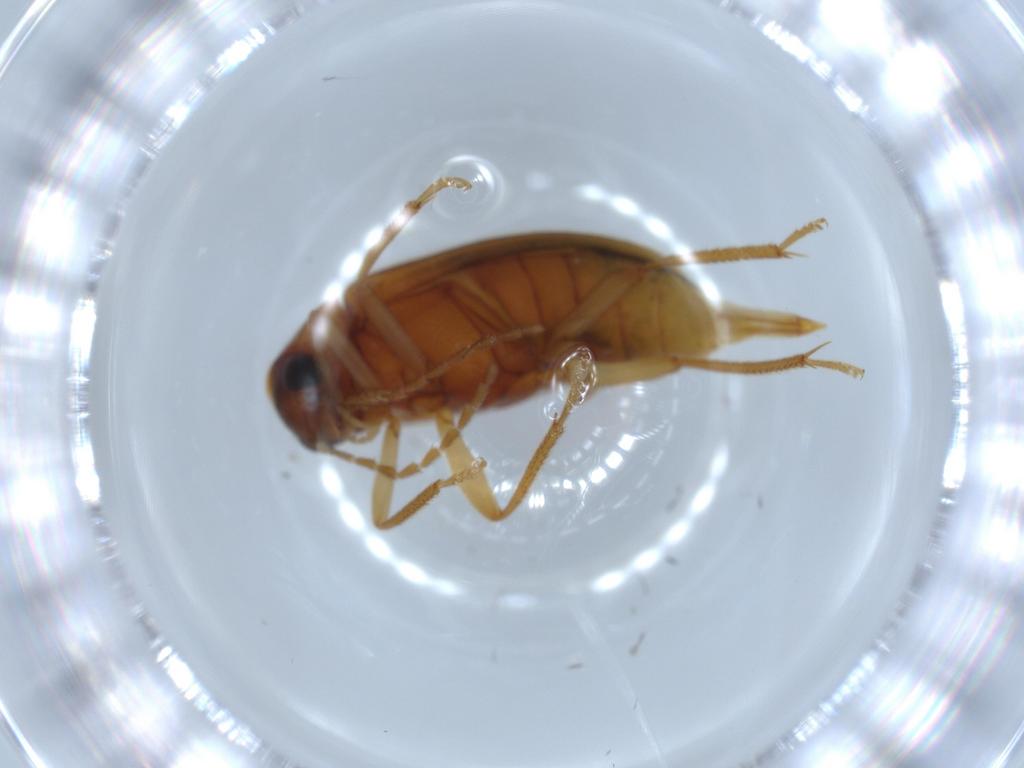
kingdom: Animalia
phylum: Arthropoda
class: Insecta
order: Coleoptera
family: Ptilodactylidae
